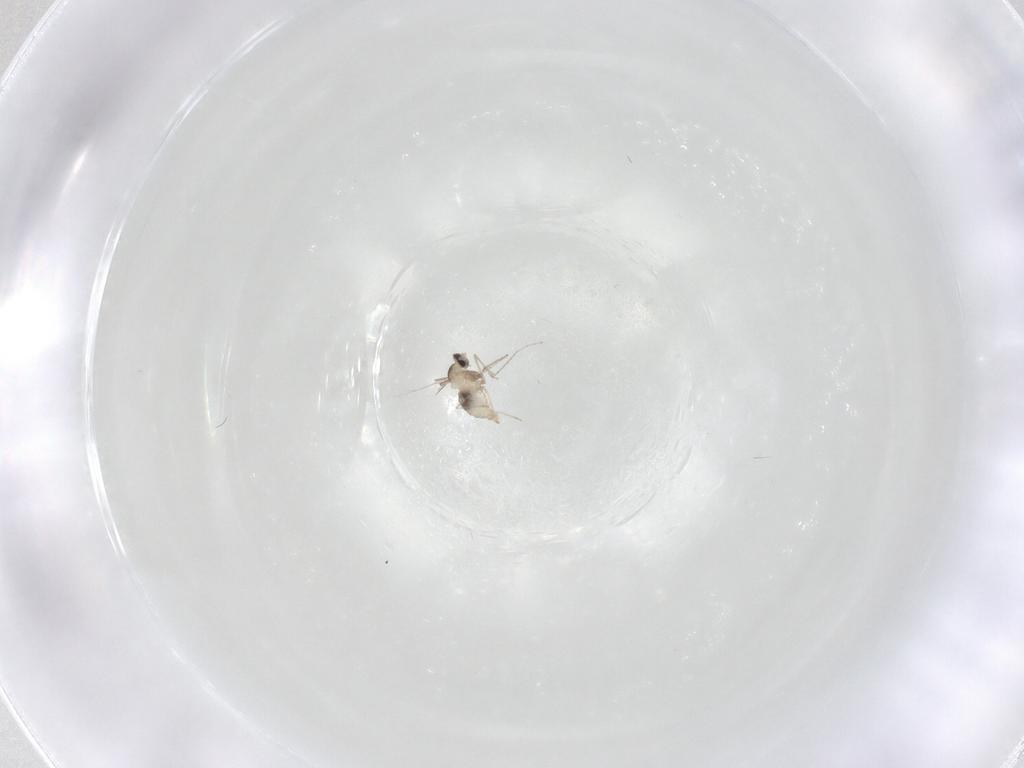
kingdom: Animalia
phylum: Arthropoda
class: Insecta
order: Diptera
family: Cecidomyiidae
